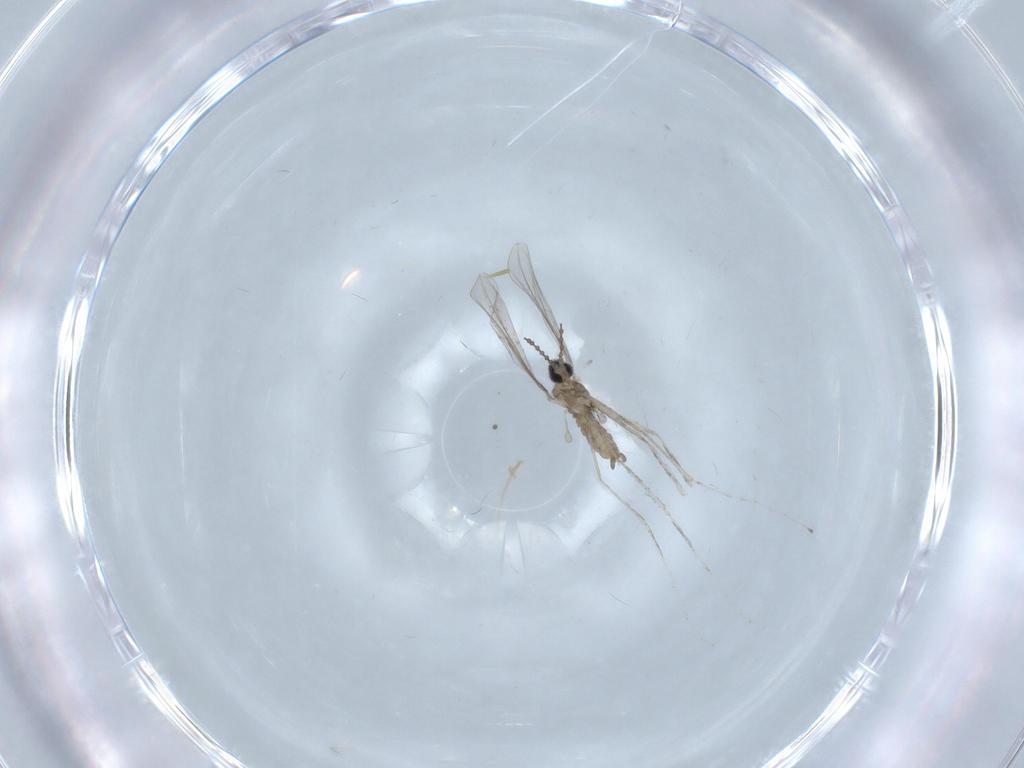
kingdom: Animalia
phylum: Arthropoda
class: Insecta
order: Diptera
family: Cecidomyiidae
